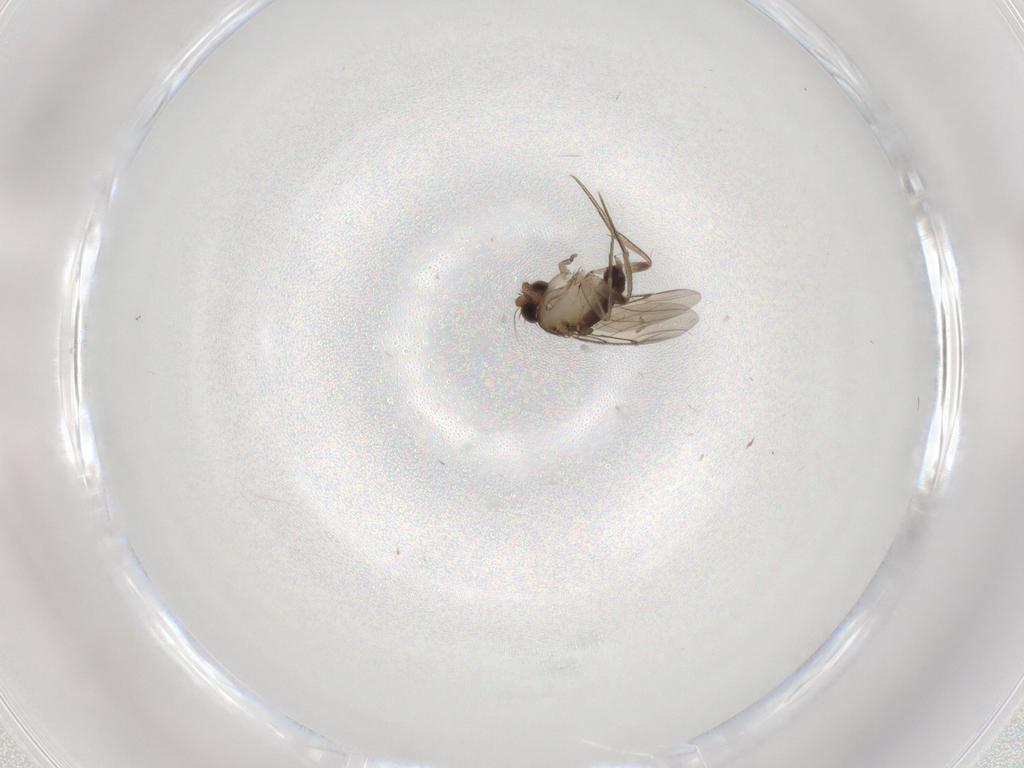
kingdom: Animalia
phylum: Arthropoda
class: Insecta
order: Diptera
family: Phoridae
